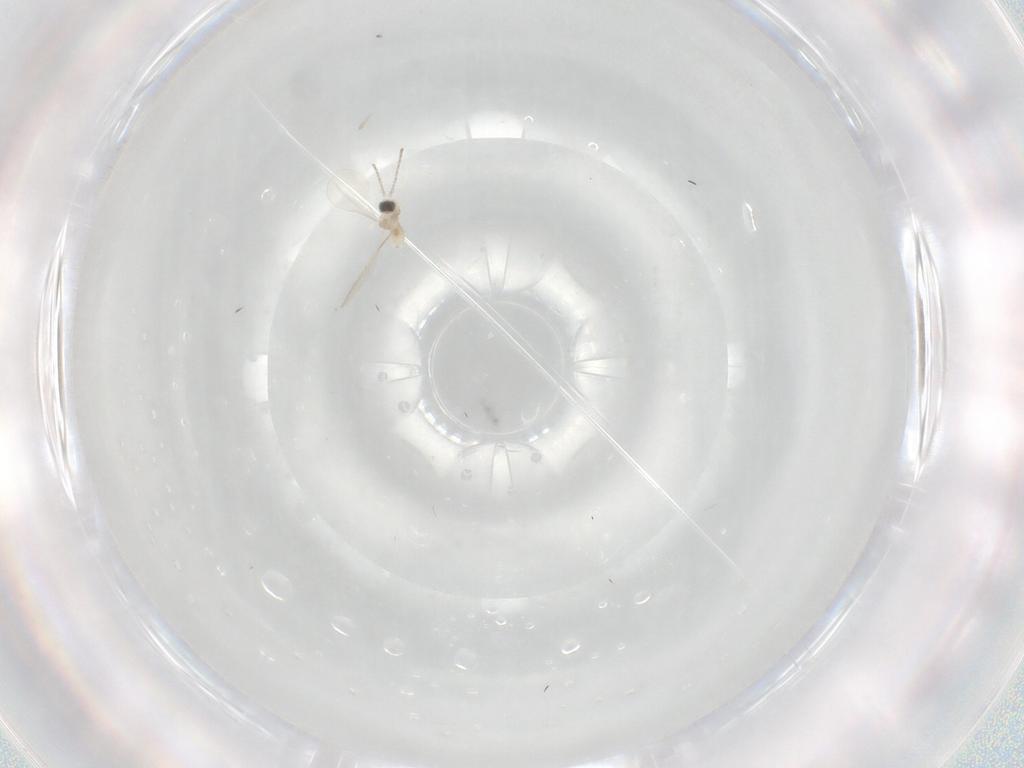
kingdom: Animalia
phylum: Arthropoda
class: Insecta
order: Diptera
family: Cecidomyiidae
